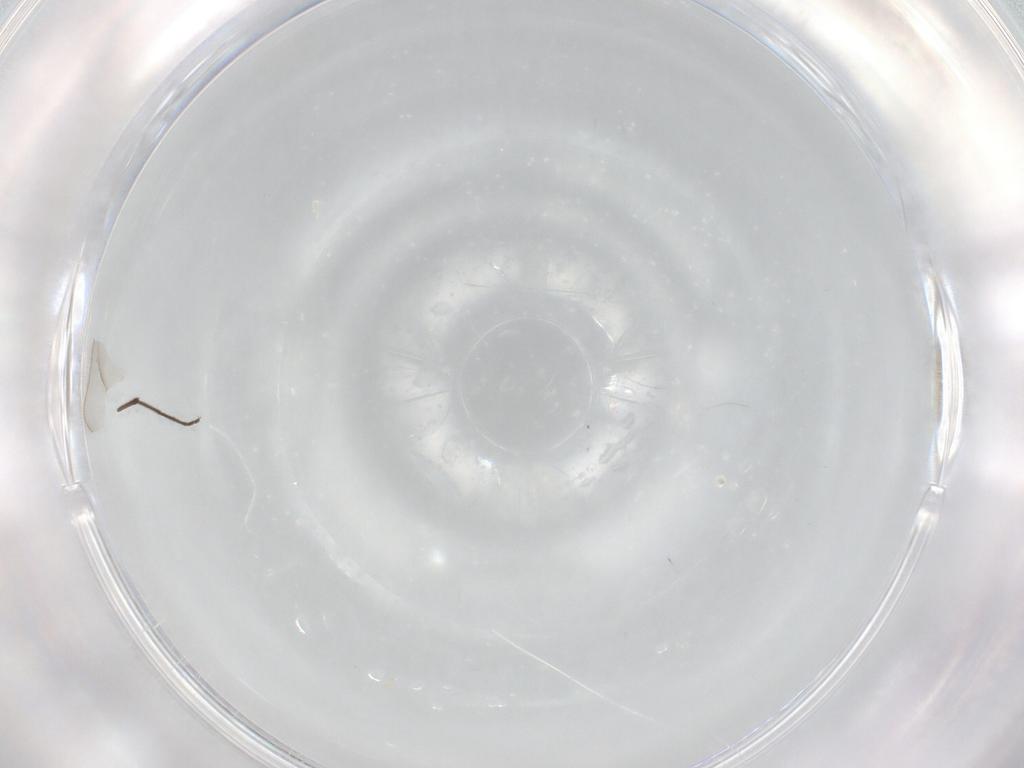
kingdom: Animalia
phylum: Arthropoda
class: Insecta
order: Diptera
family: Chironomidae
